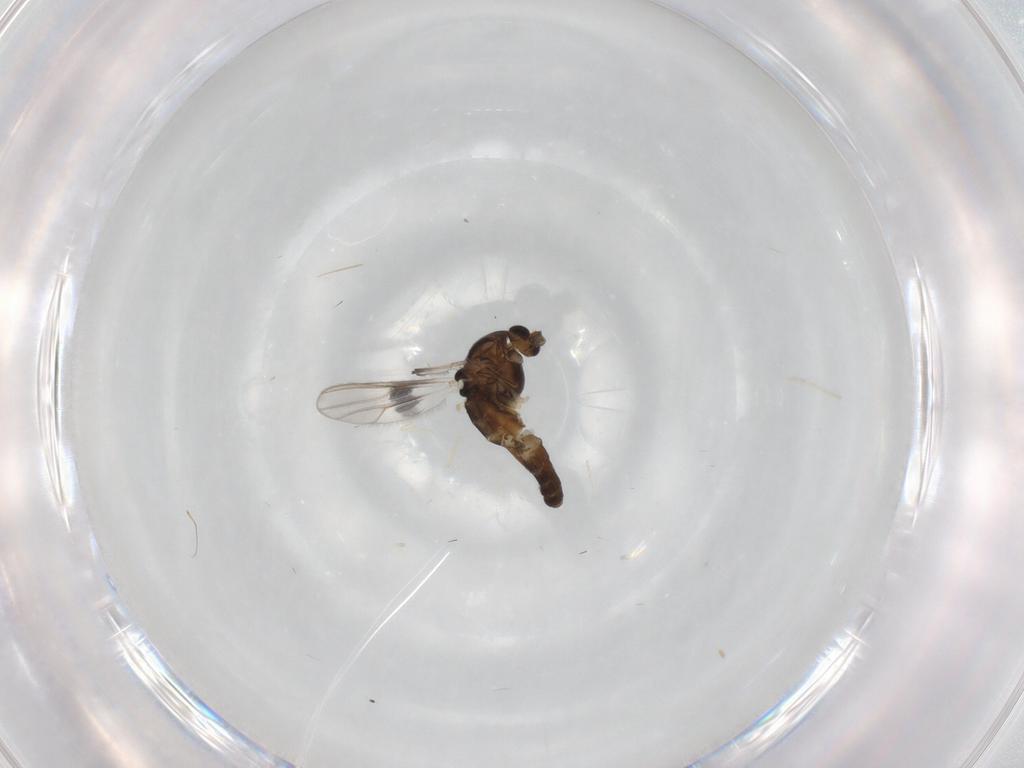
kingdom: Animalia
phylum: Arthropoda
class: Insecta
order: Diptera
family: Chironomidae
